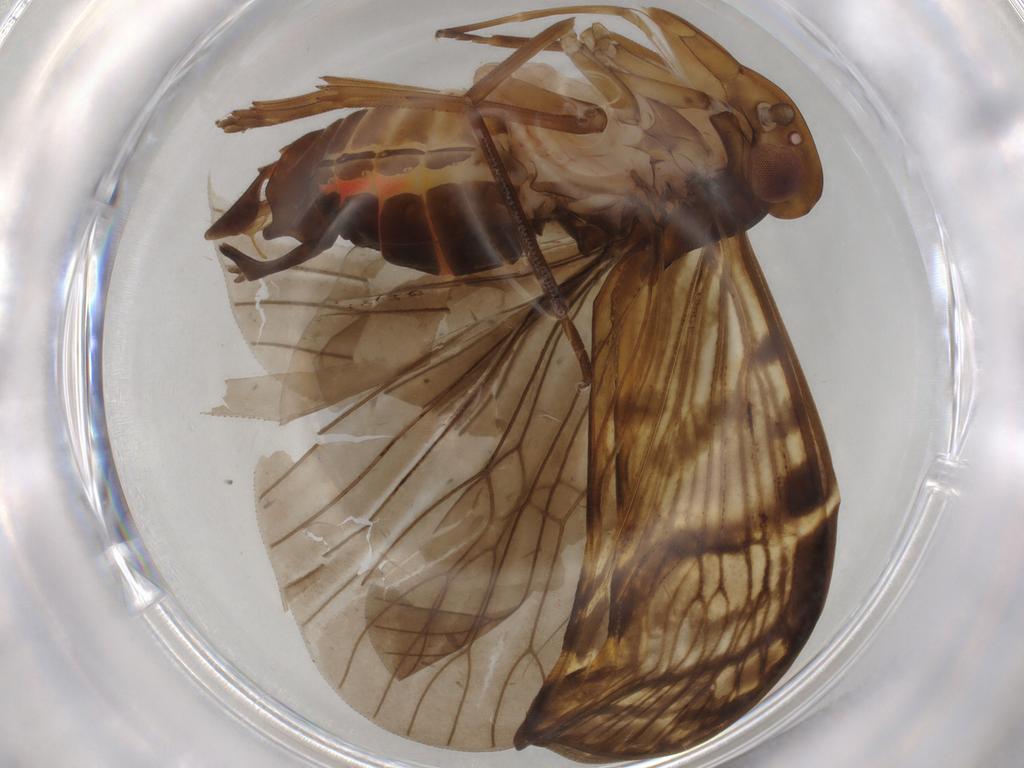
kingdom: Animalia
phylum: Arthropoda
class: Insecta
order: Hemiptera
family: Cicadellidae
